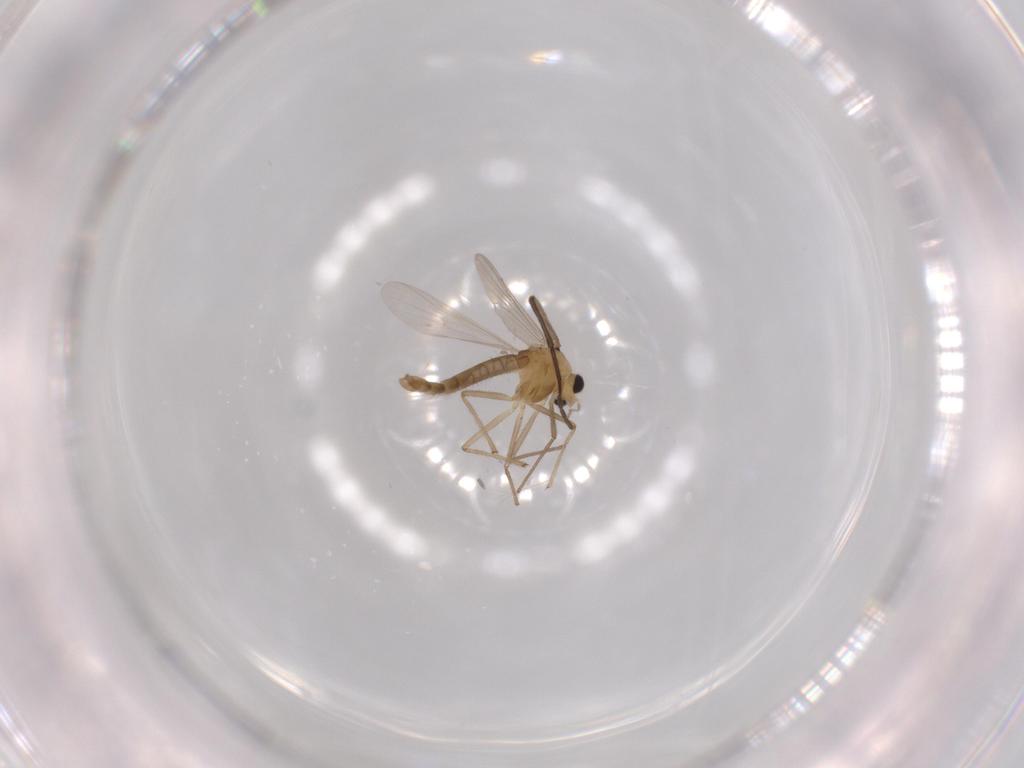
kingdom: Animalia
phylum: Arthropoda
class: Insecta
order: Diptera
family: Chironomidae
